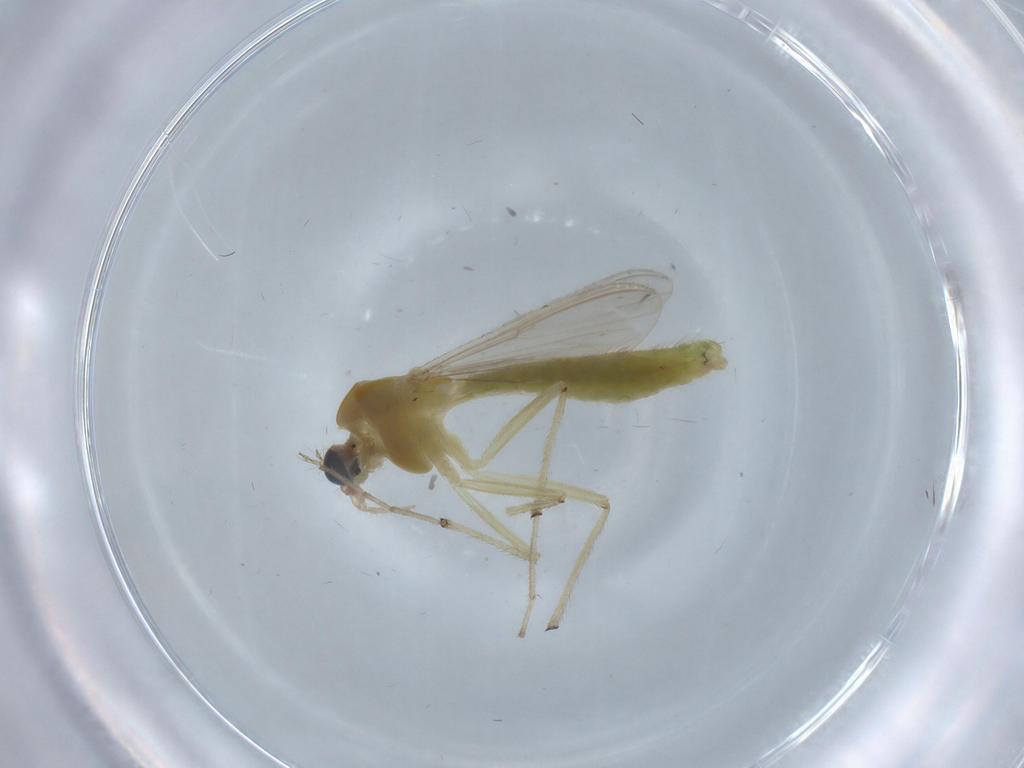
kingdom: Animalia
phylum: Arthropoda
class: Insecta
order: Diptera
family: Chironomidae
